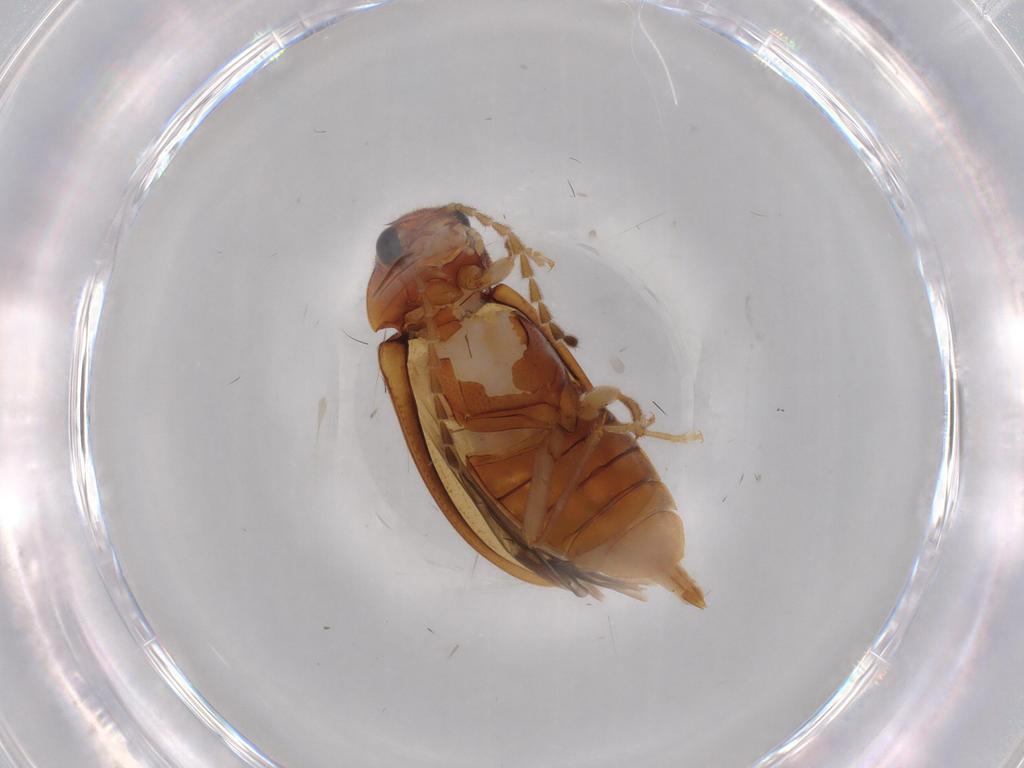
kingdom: Animalia
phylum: Arthropoda
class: Insecta
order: Coleoptera
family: Ptilodactylidae
